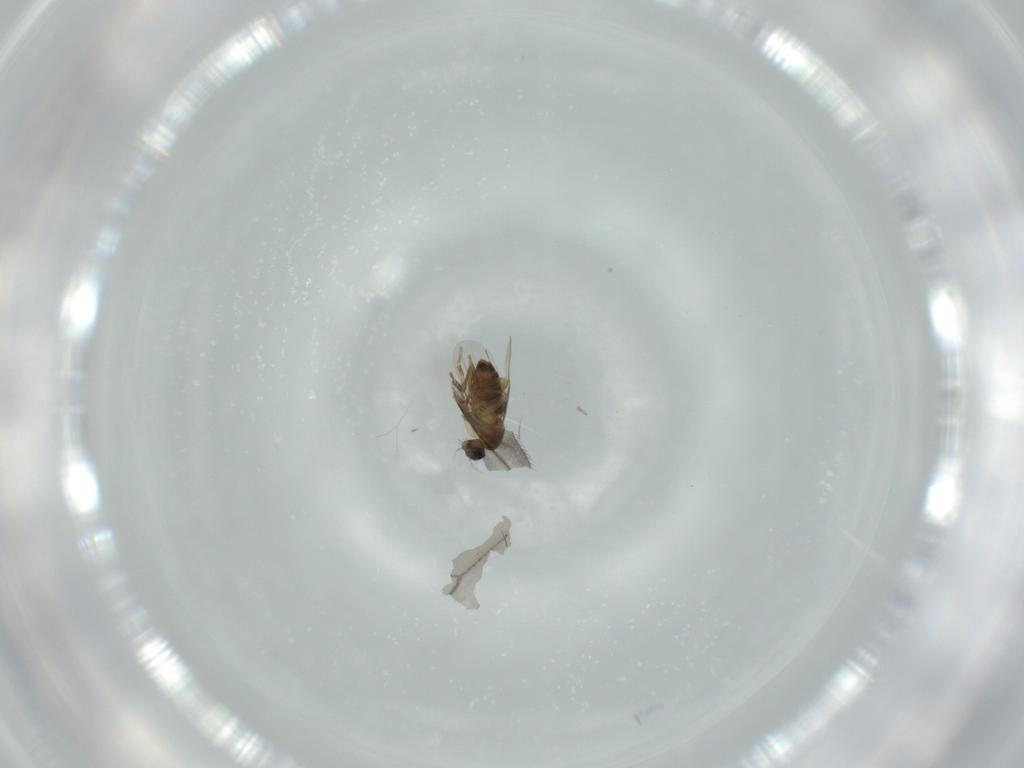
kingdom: Animalia
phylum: Arthropoda
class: Insecta
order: Diptera
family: Phoridae
